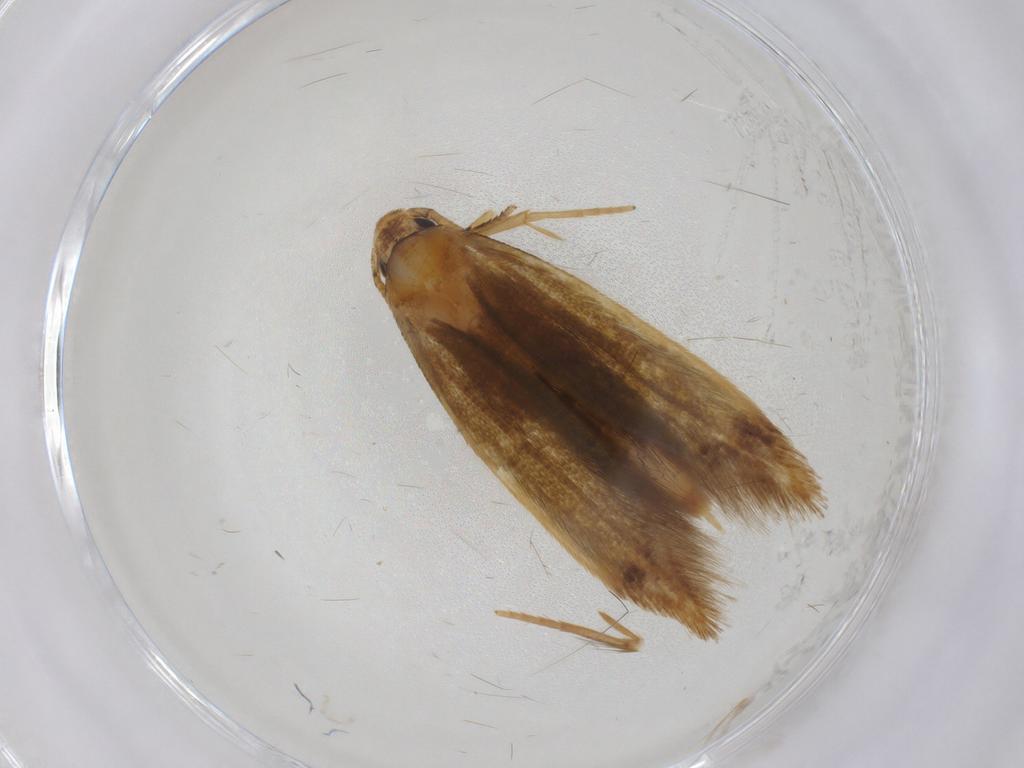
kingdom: Animalia
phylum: Arthropoda
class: Insecta
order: Lepidoptera
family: Tineidae
